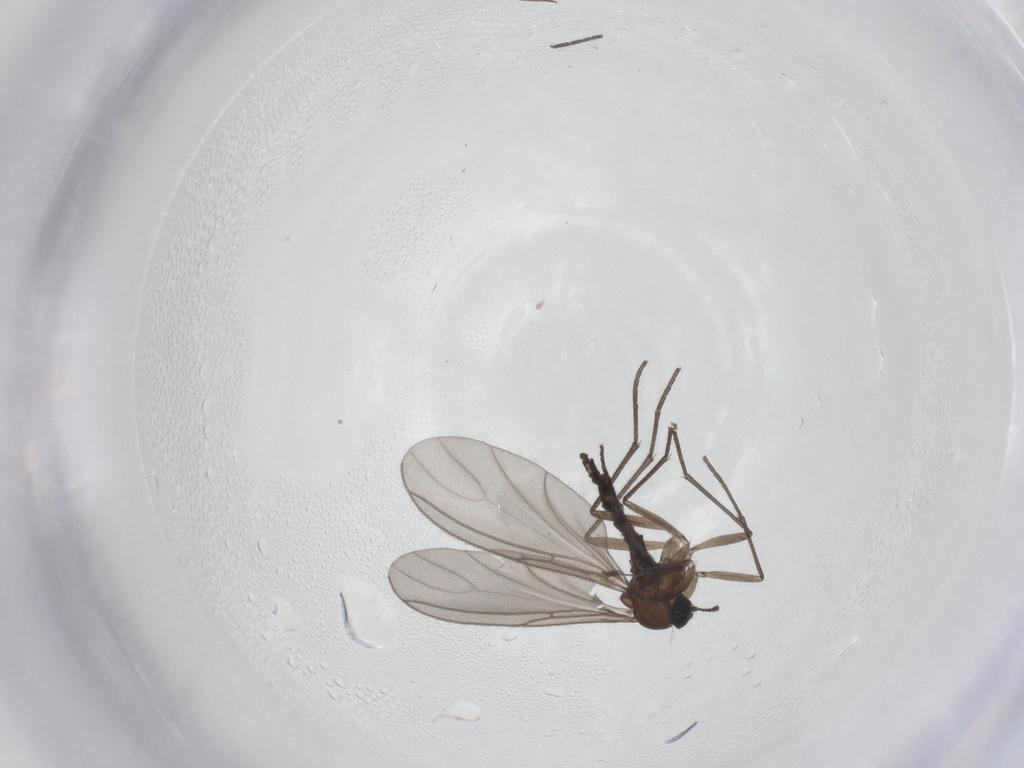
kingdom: Animalia
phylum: Arthropoda
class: Insecta
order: Diptera
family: Sciaridae
